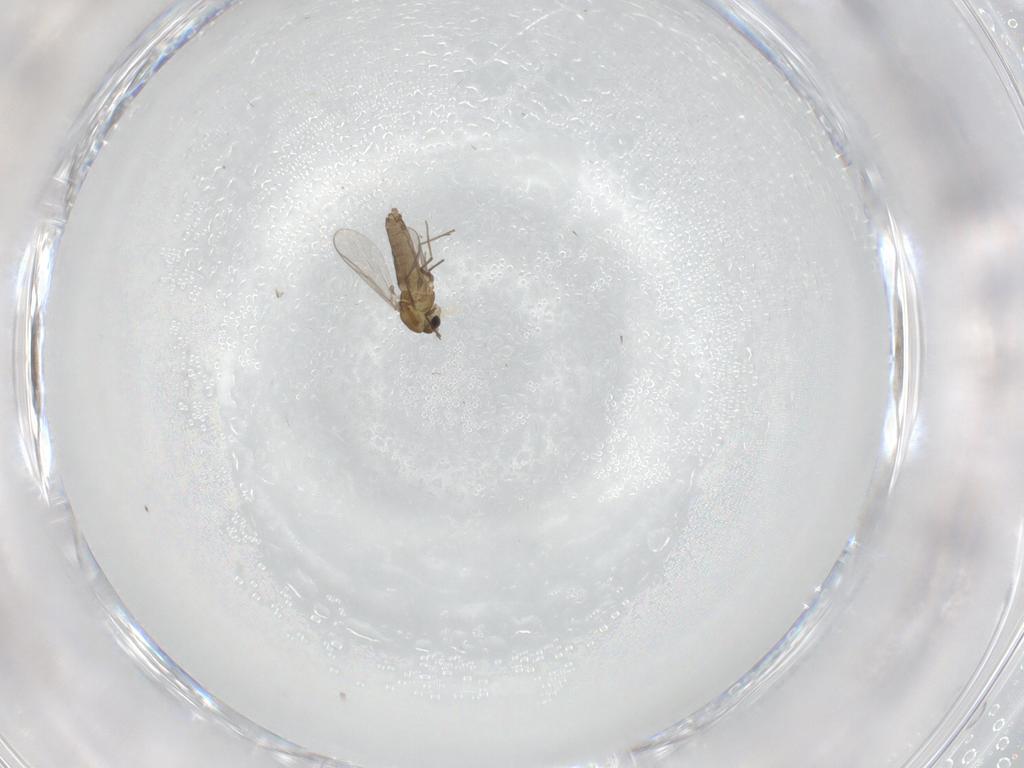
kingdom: Animalia
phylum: Arthropoda
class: Insecta
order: Diptera
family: Chironomidae
